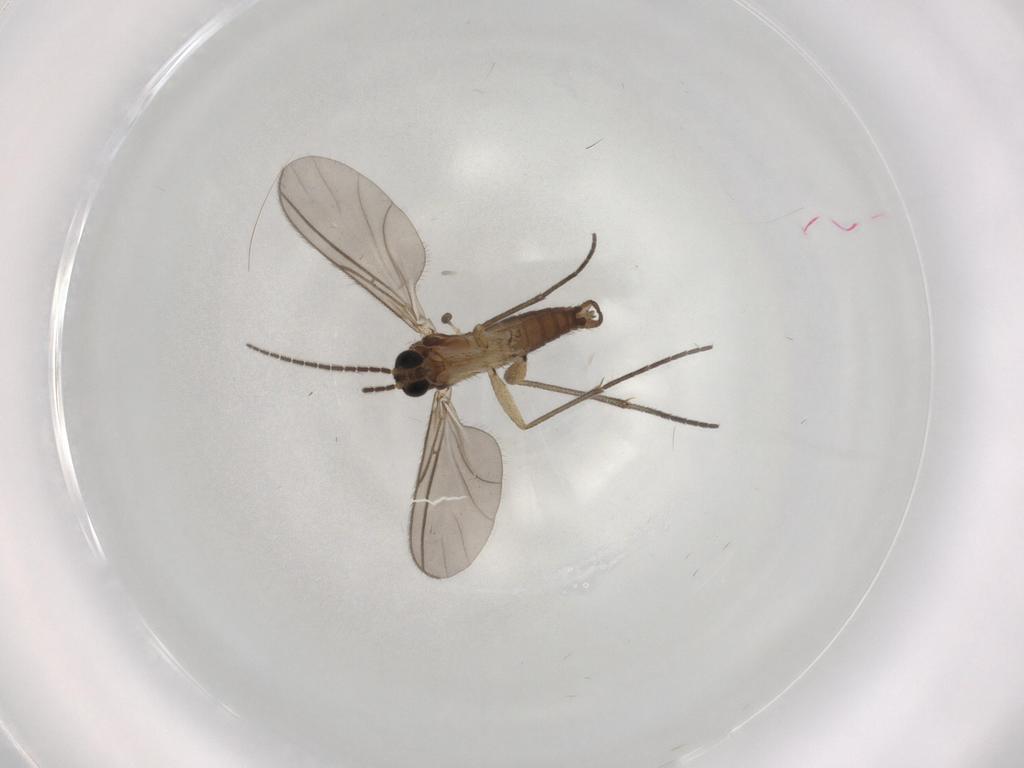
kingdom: Animalia
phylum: Arthropoda
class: Insecta
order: Diptera
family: Sciaridae
